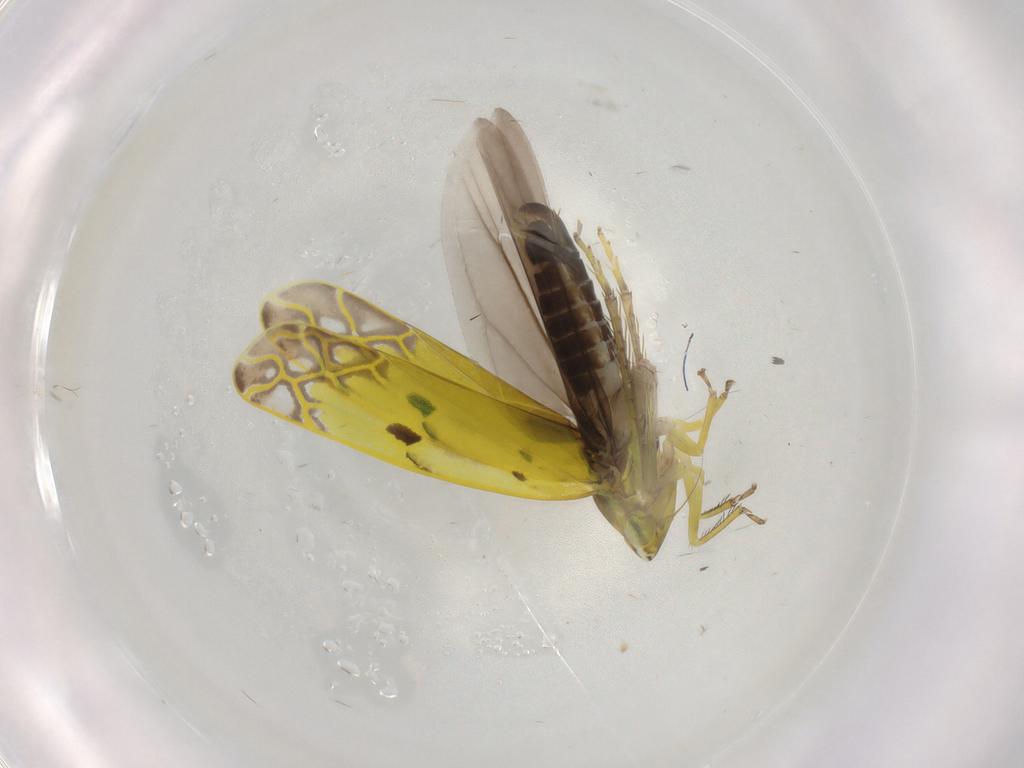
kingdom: Animalia
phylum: Arthropoda
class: Insecta
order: Hemiptera
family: Cicadellidae
